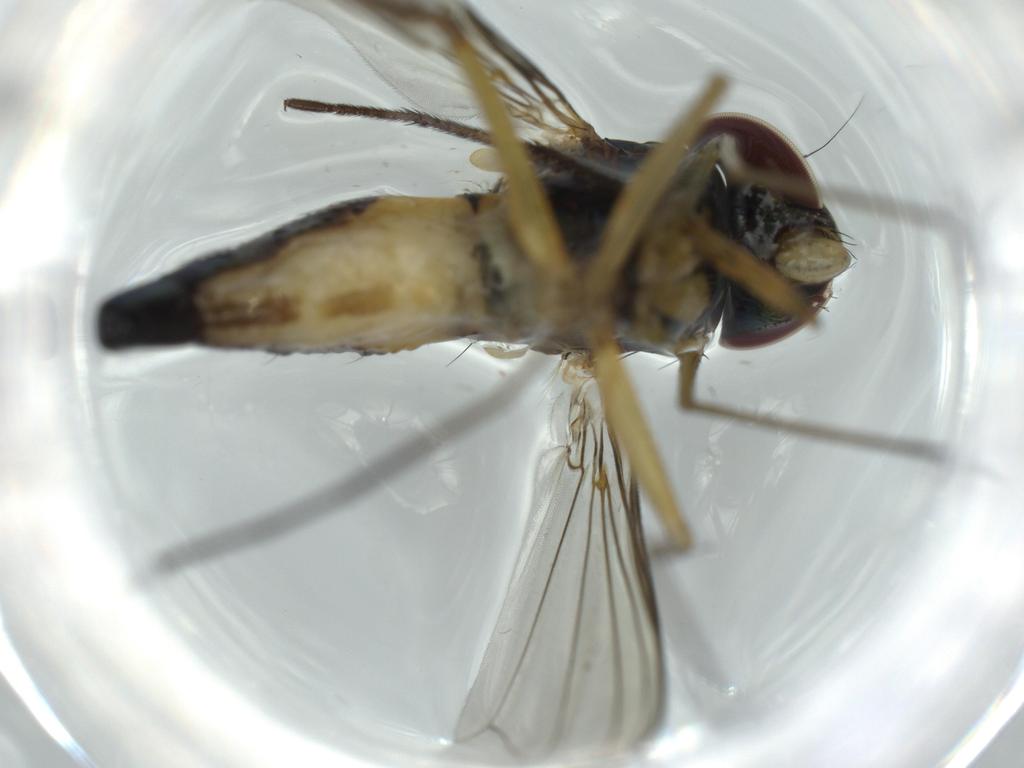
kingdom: Animalia
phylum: Arthropoda
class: Insecta
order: Diptera
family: Dolichopodidae
